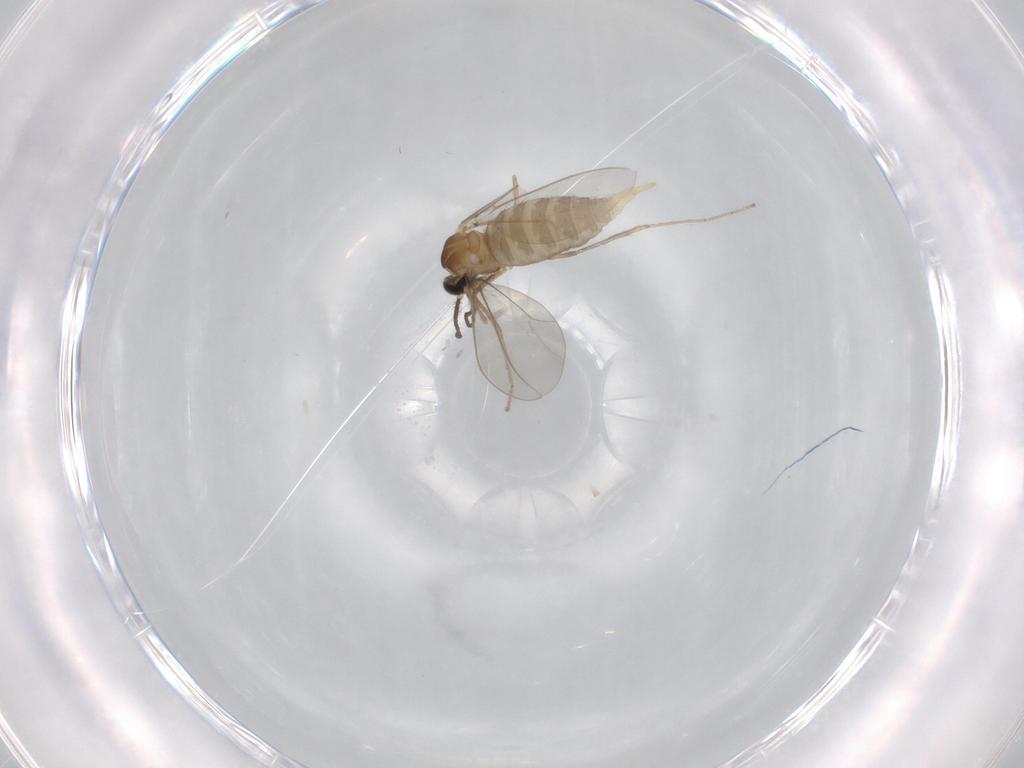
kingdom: Animalia
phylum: Arthropoda
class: Insecta
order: Diptera
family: Cecidomyiidae
